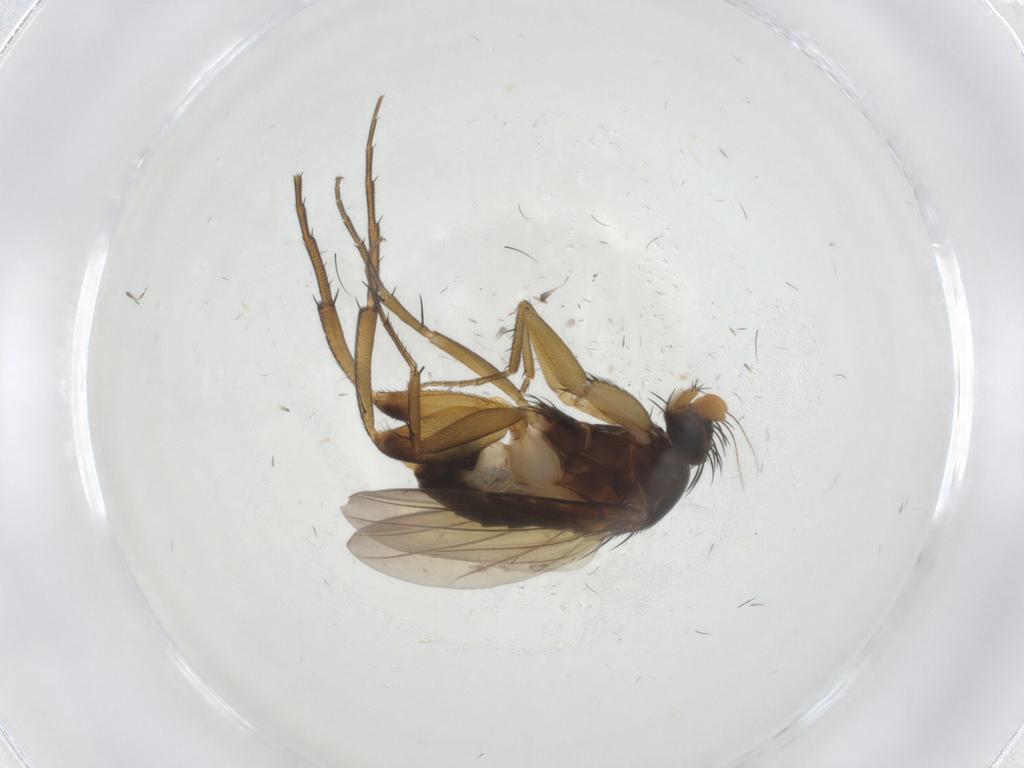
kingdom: Animalia
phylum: Arthropoda
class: Insecta
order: Diptera
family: Phoridae
